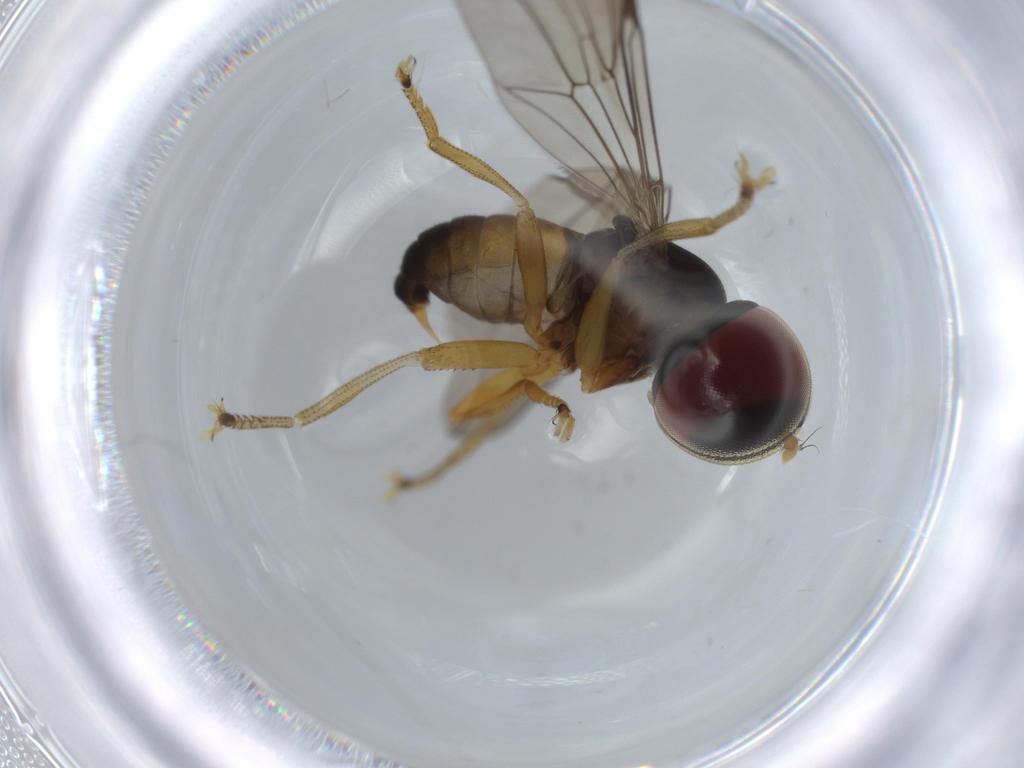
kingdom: Animalia
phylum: Arthropoda
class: Insecta
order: Diptera
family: Pipunculidae
